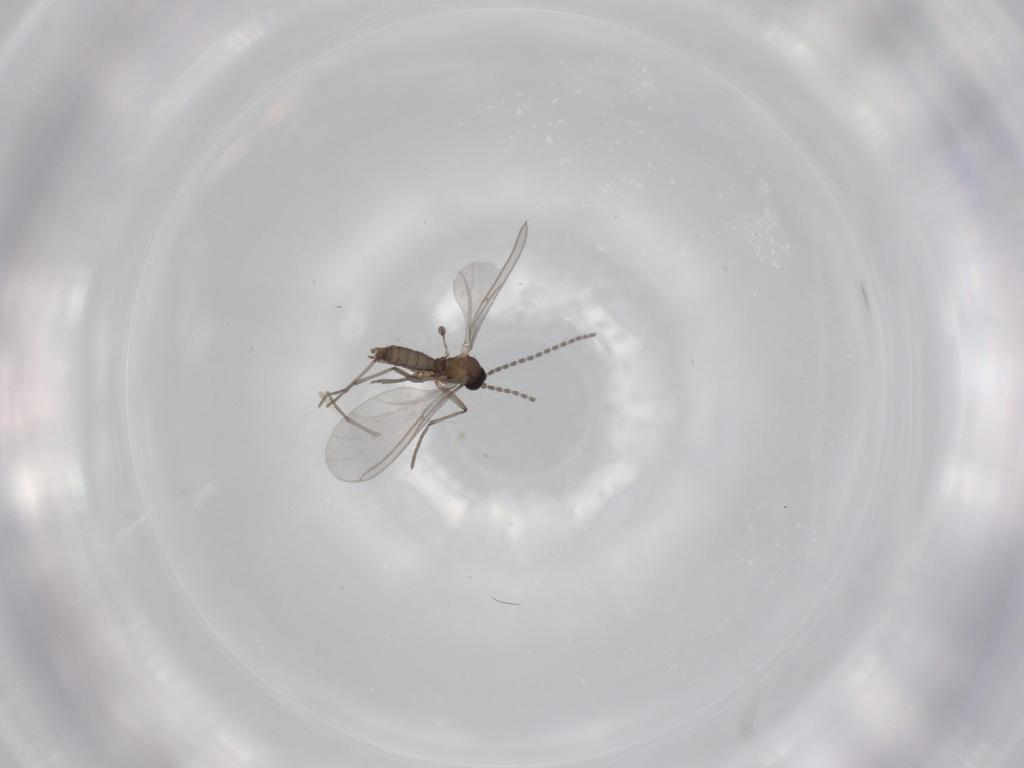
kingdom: Animalia
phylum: Arthropoda
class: Insecta
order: Diptera
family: Sciaridae
